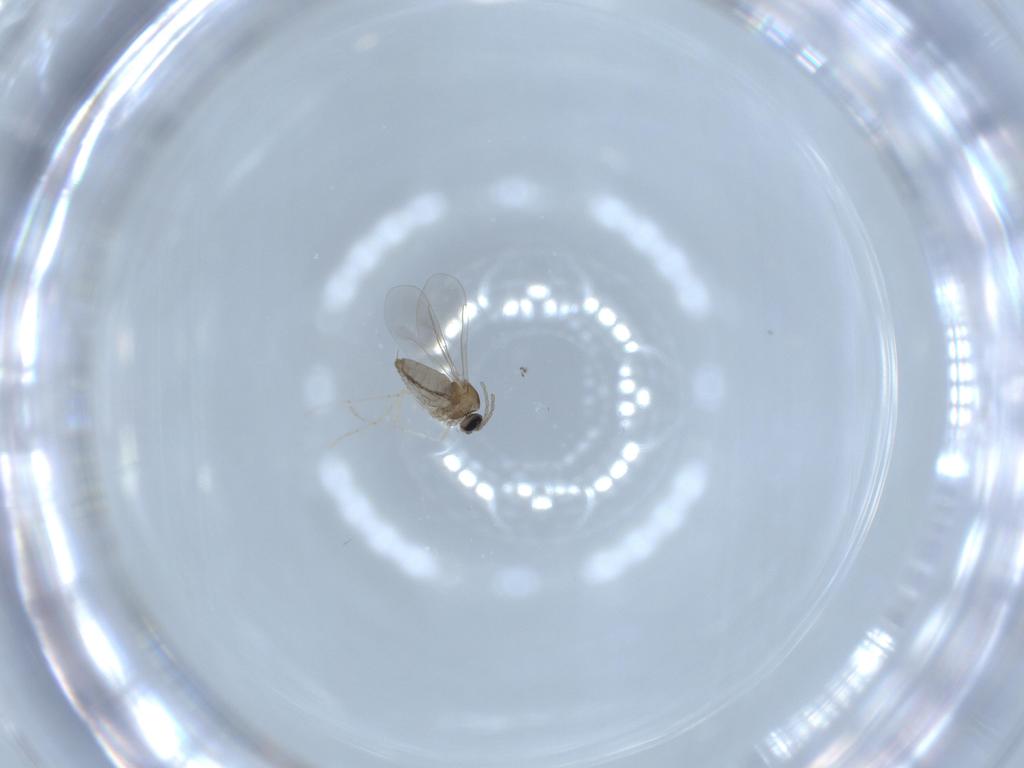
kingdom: Animalia
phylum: Arthropoda
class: Insecta
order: Diptera
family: Cecidomyiidae
